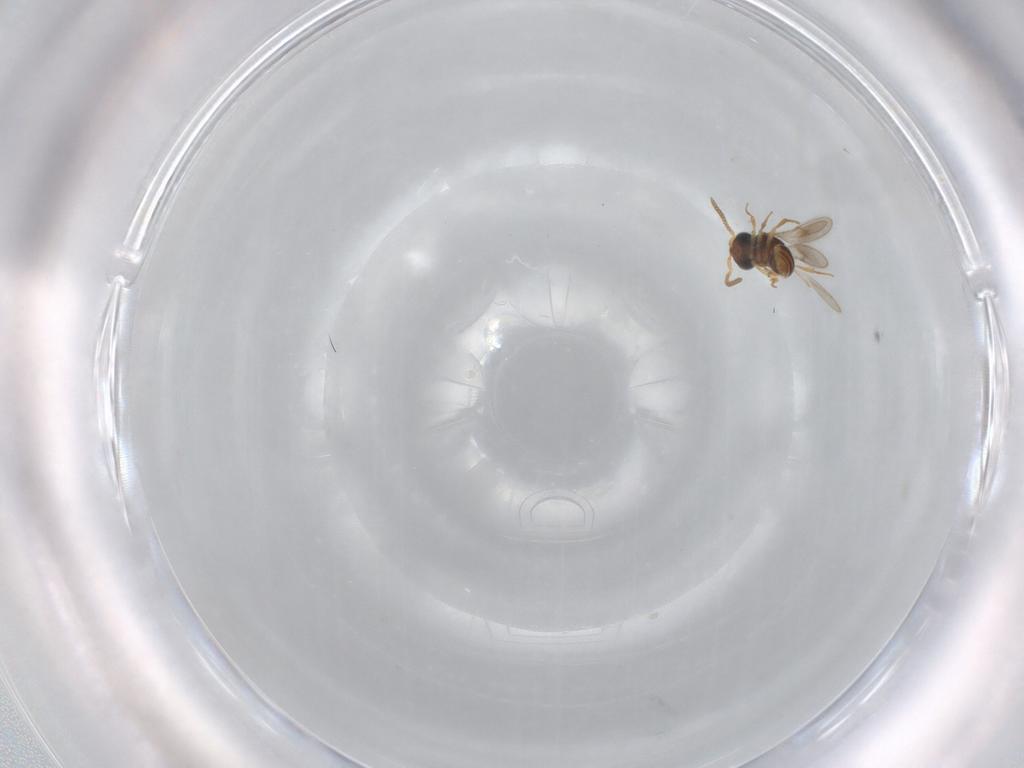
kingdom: Animalia
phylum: Arthropoda
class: Insecta
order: Hymenoptera
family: Scelionidae
